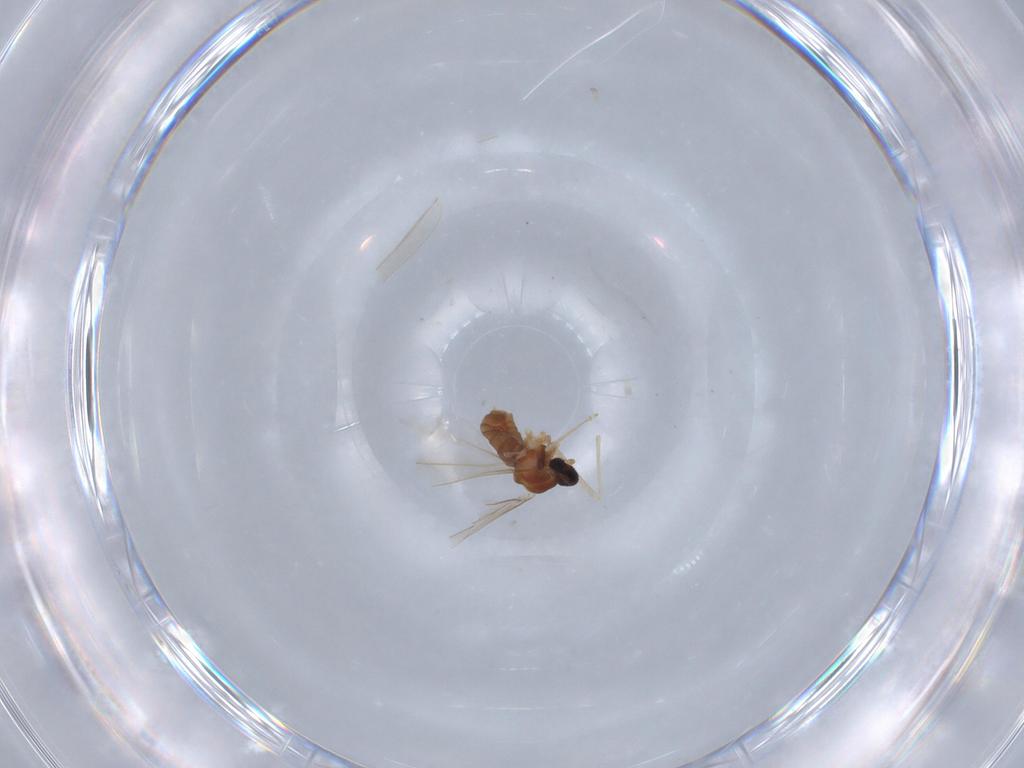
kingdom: Animalia
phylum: Arthropoda
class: Insecta
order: Diptera
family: Cecidomyiidae
